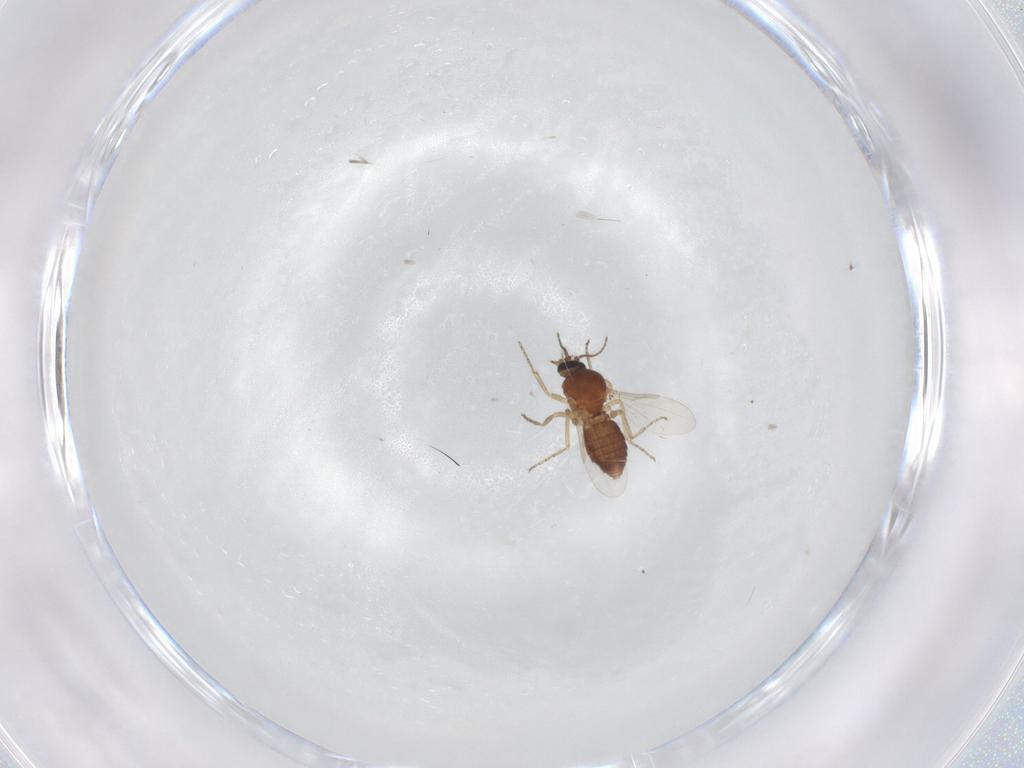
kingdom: Animalia
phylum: Arthropoda
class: Insecta
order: Diptera
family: Ceratopogonidae
